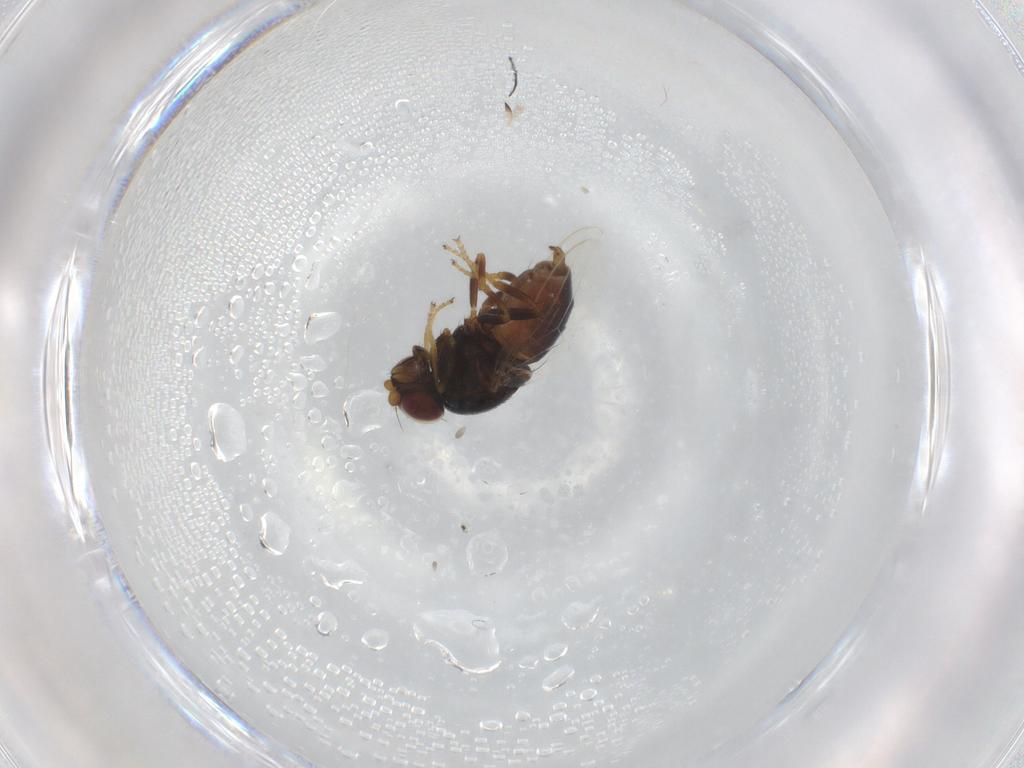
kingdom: Animalia
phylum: Arthropoda
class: Insecta
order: Diptera
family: Chloropidae
